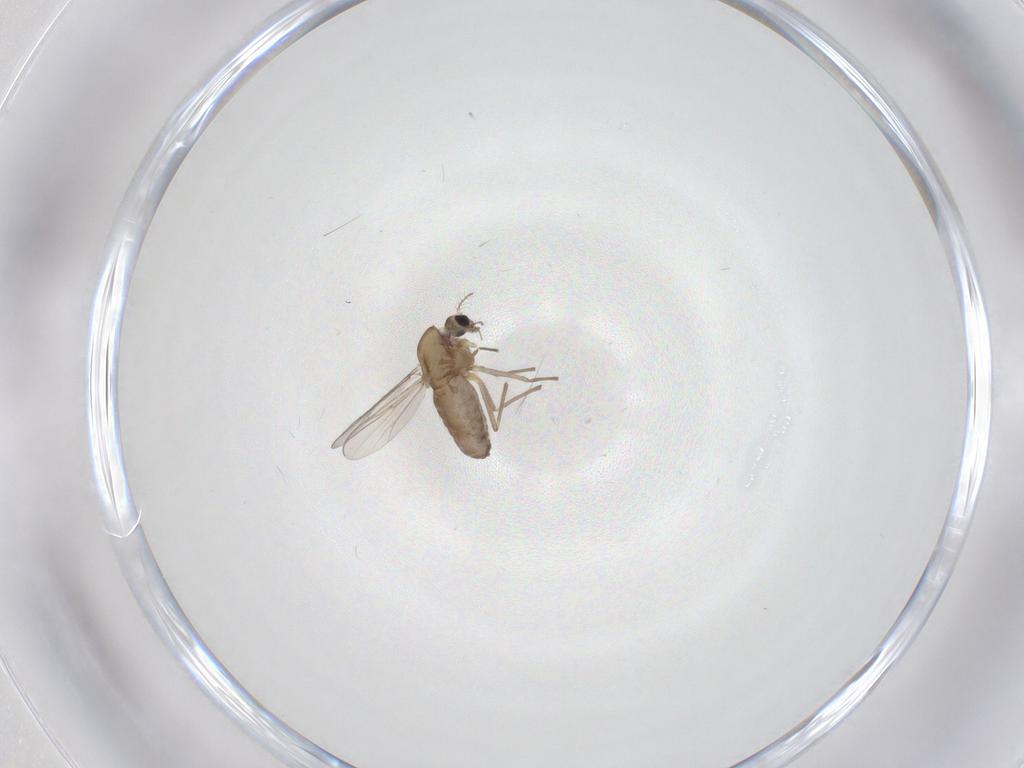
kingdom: Animalia
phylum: Arthropoda
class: Insecta
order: Diptera
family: Chironomidae
